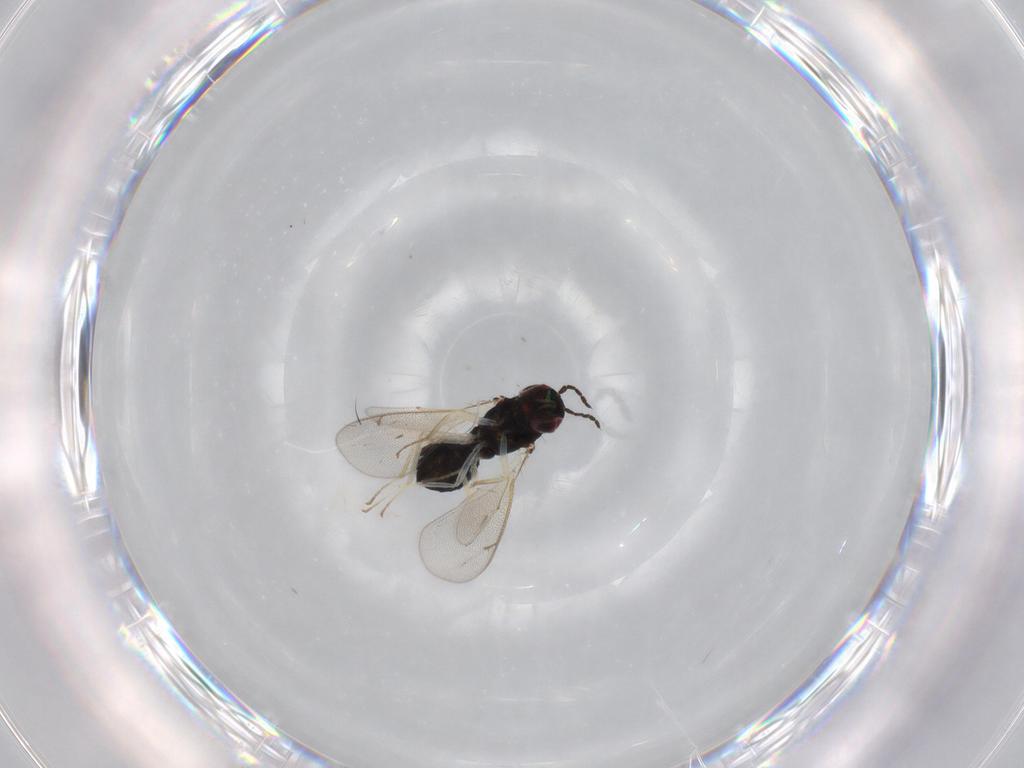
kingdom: Animalia
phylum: Arthropoda
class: Insecta
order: Hymenoptera
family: Eulophidae
